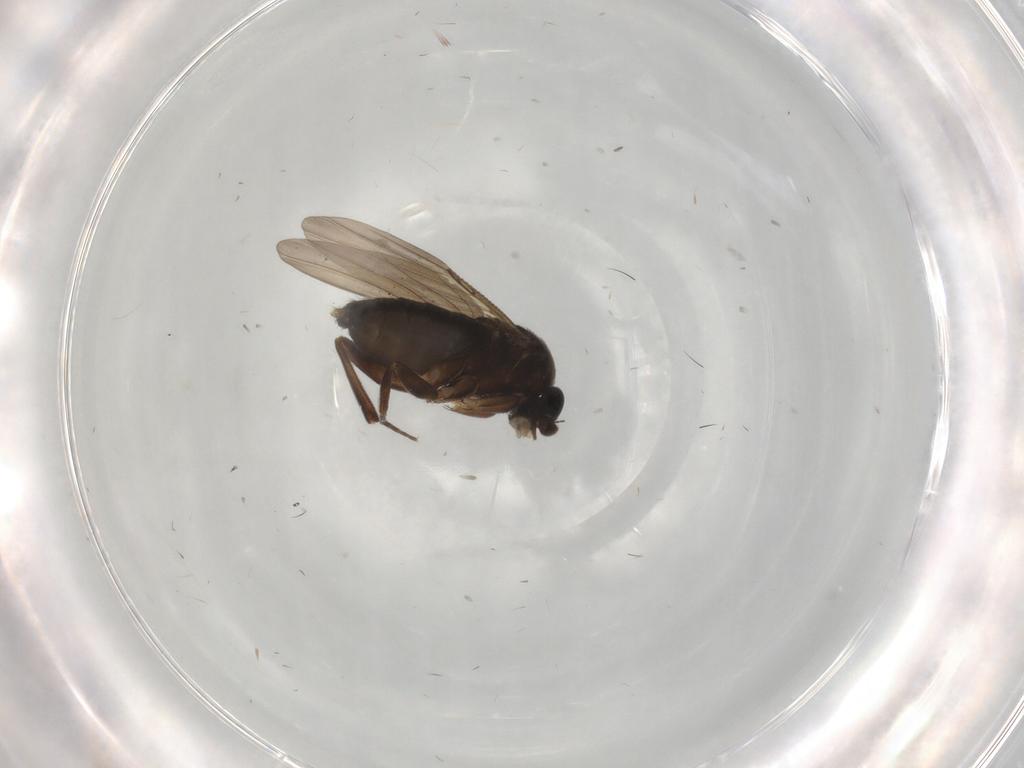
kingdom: Animalia
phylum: Arthropoda
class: Insecta
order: Diptera
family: Phoridae
